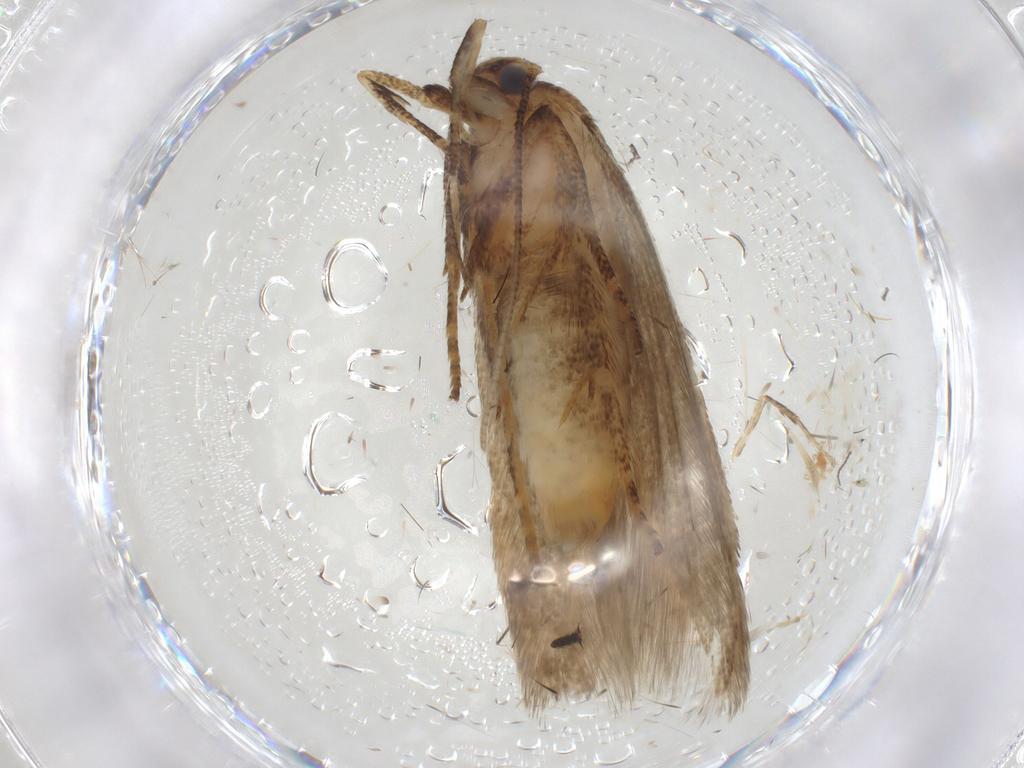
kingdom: Animalia
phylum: Arthropoda
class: Insecta
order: Lepidoptera
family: Blastobasidae
